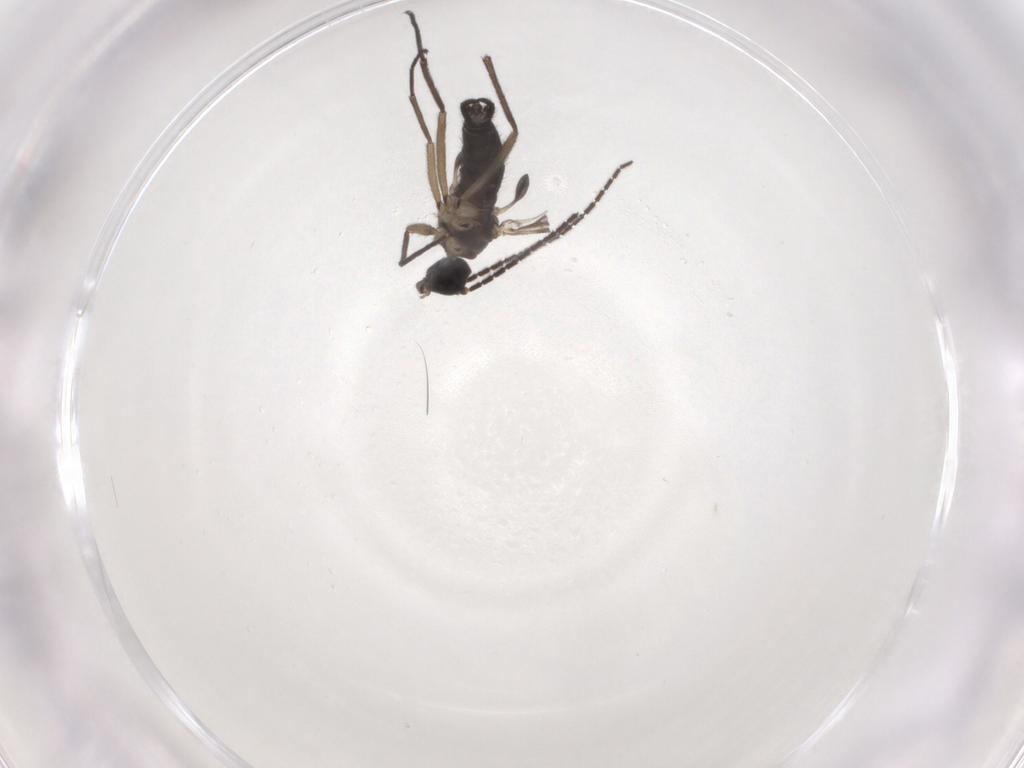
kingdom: Animalia
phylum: Arthropoda
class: Insecta
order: Diptera
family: Sciaridae
